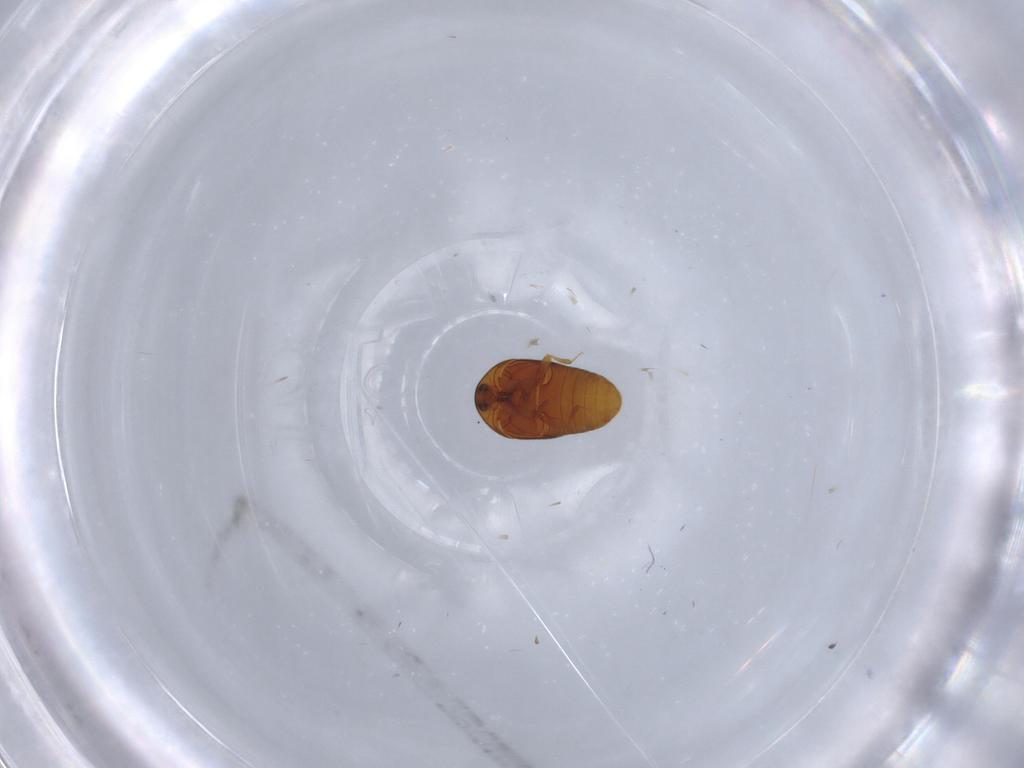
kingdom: Animalia
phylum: Arthropoda
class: Insecta
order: Coleoptera
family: Corylophidae
